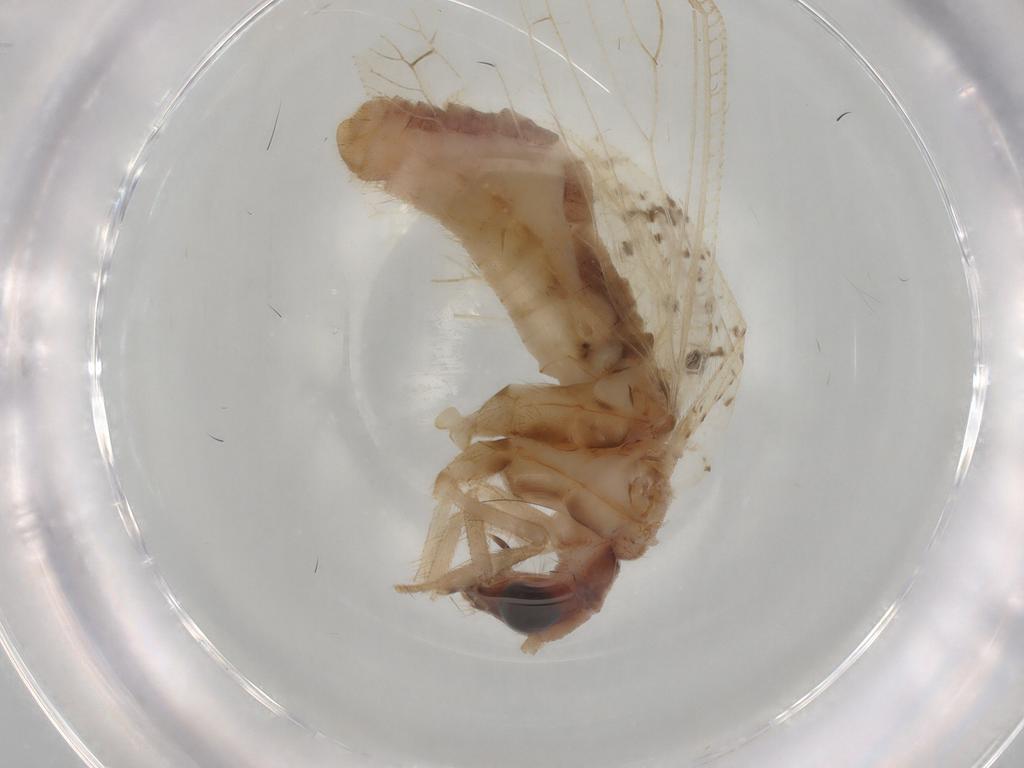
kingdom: Animalia
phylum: Arthropoda
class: Insecta
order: Neuroptera
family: Hemerobiidae
